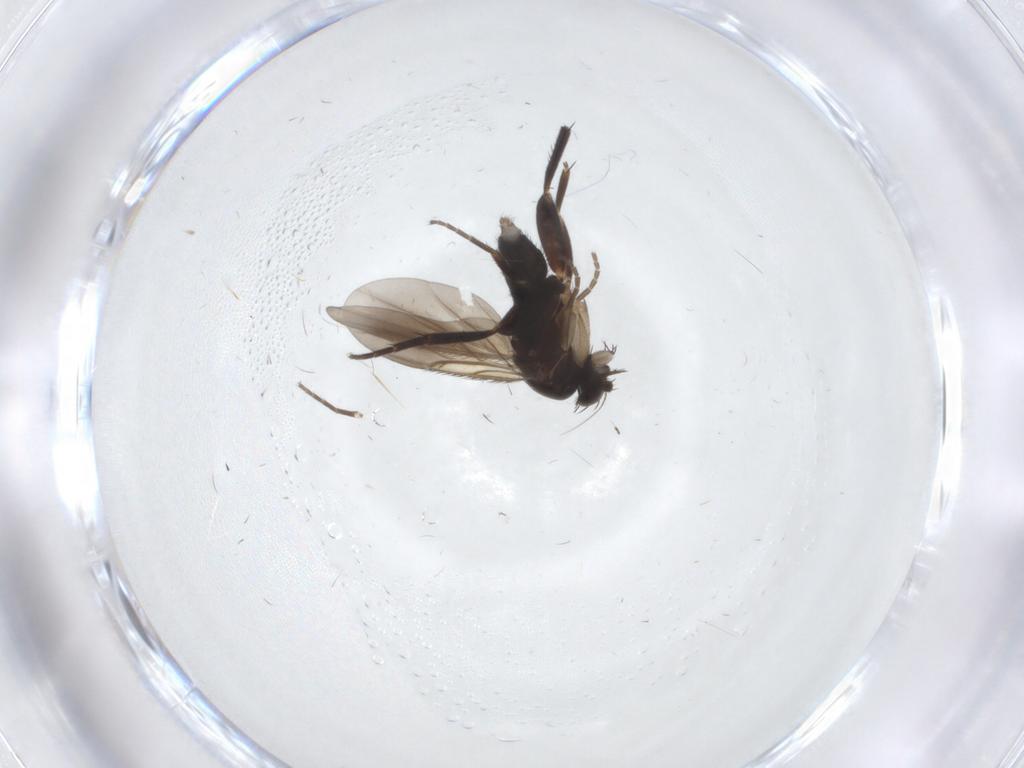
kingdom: Animalia
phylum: Arthropoda
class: Insecta
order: Diptera
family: Phoridae
